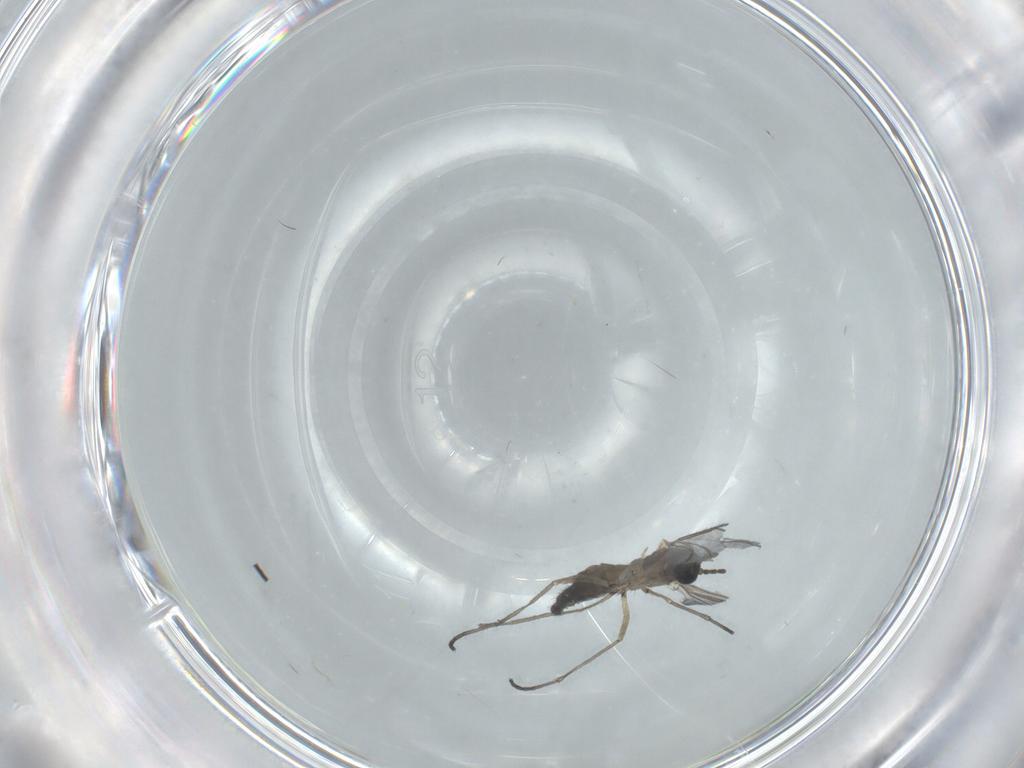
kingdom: Animalia
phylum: Arthropoda
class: Insecta
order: Diptera
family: Sciaridae
